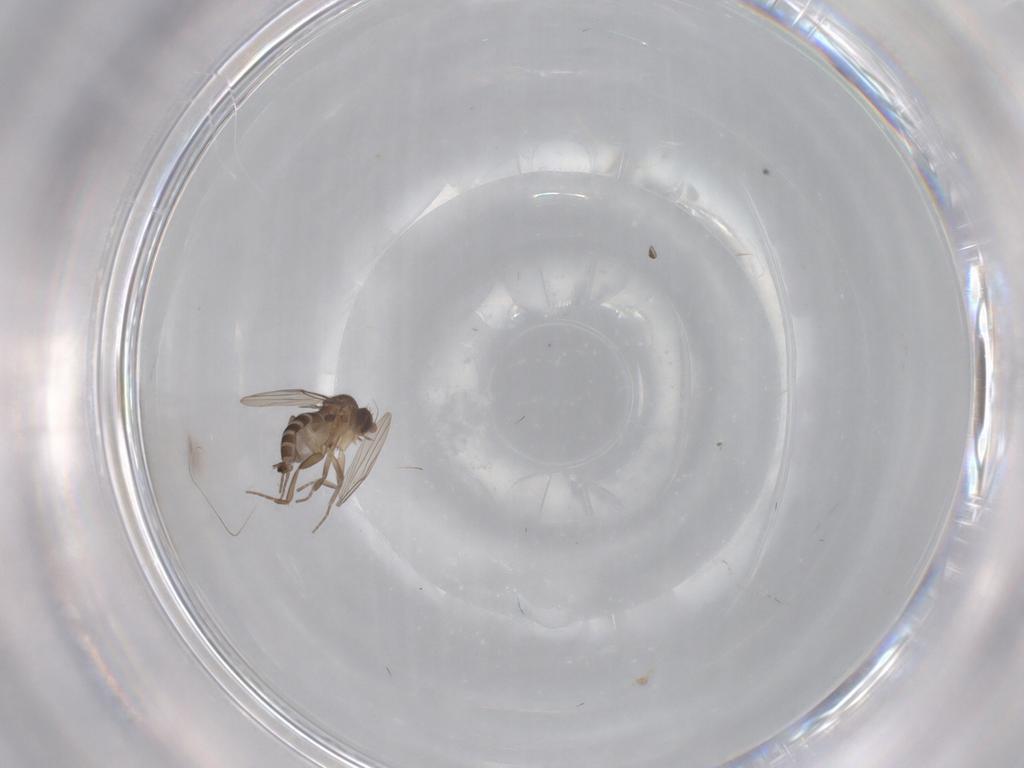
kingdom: Animalia
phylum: Arthropoda
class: Insecta
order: Diptera
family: Phoridae
